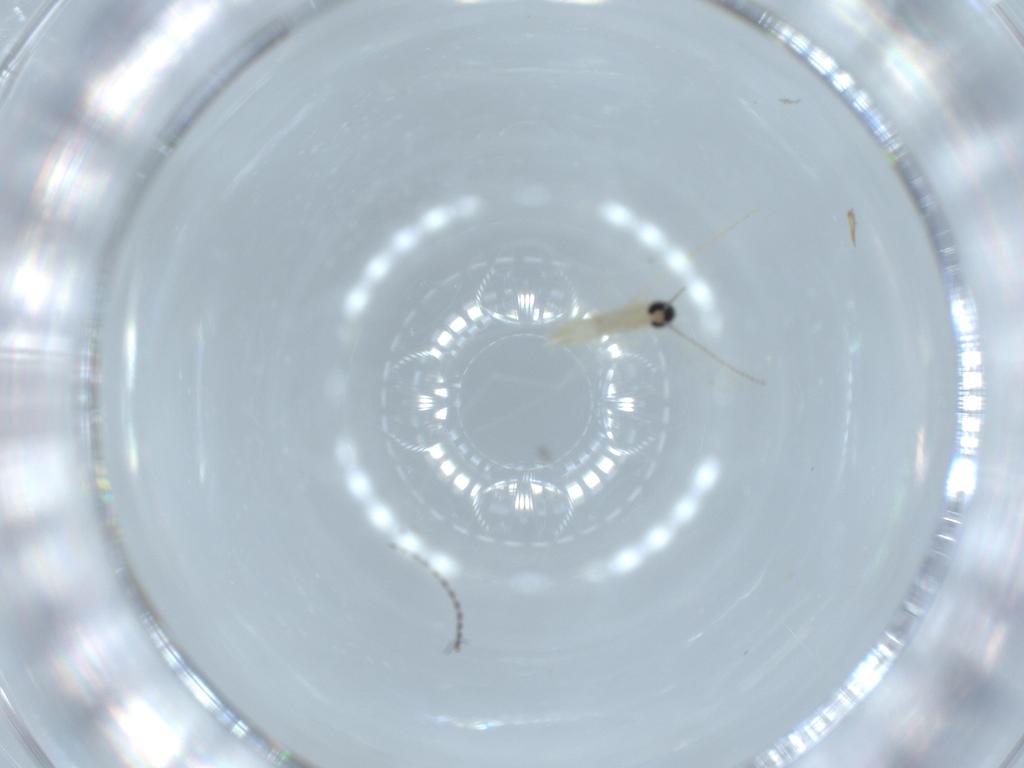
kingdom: Animalia
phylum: Arthropoda
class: Insecta
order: Diptera
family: Cecidomyiidae
